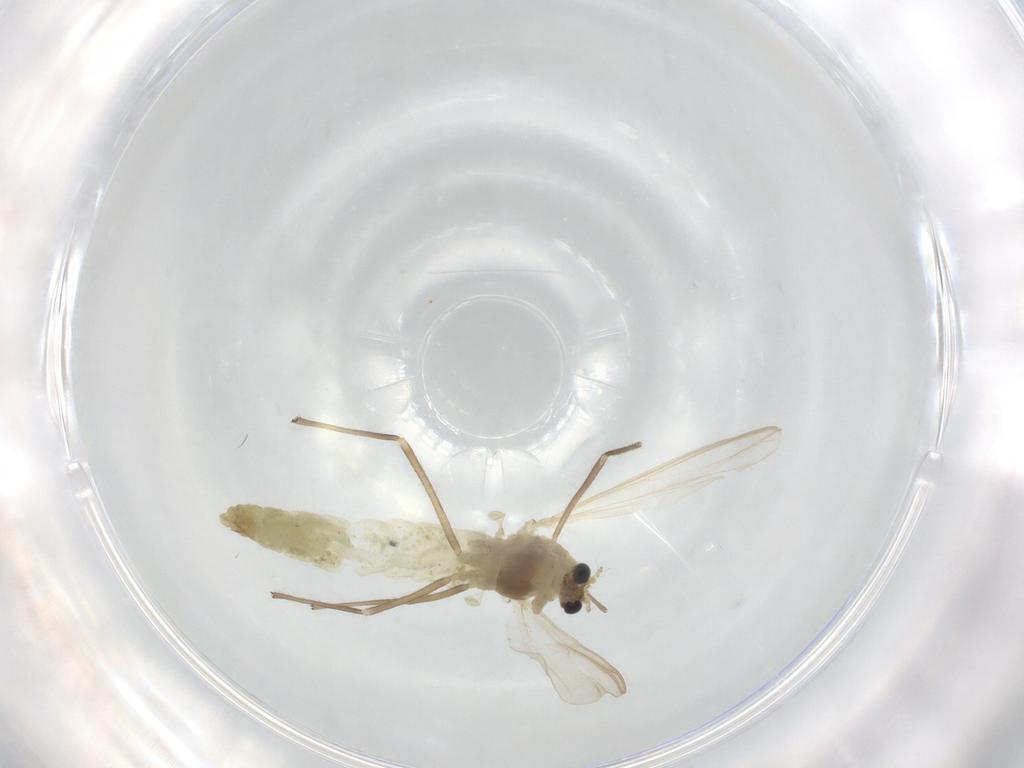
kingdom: Animalia
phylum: Arthropoda
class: Insecta
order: Diptera
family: Chironomidae
